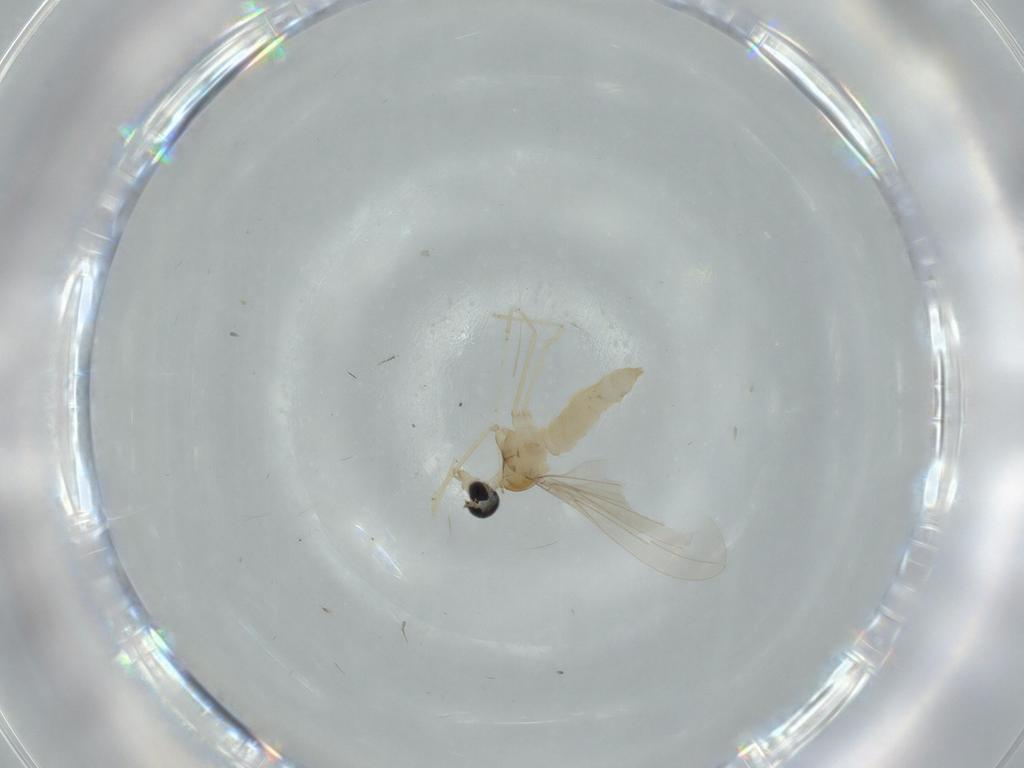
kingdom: Animalia
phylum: Arthropoda
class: Insecta
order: Diptera
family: Cecidomyiidae
